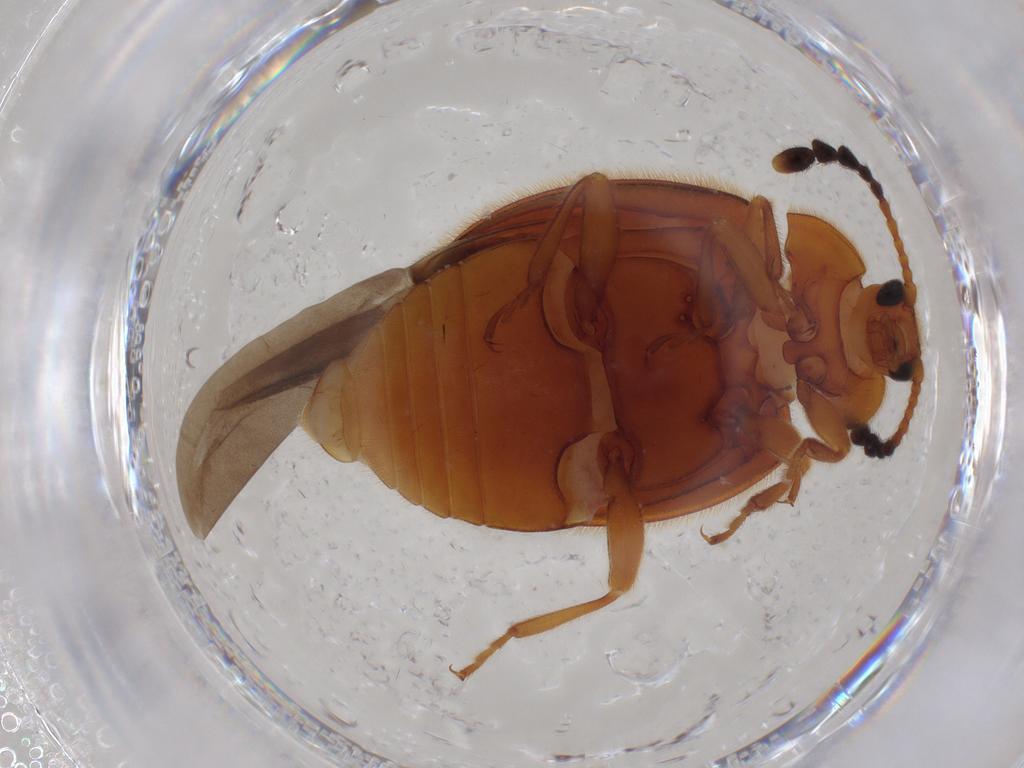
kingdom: Animalia
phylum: Arthropoda
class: Insecta
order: Coleoptera
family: Endomychidae
